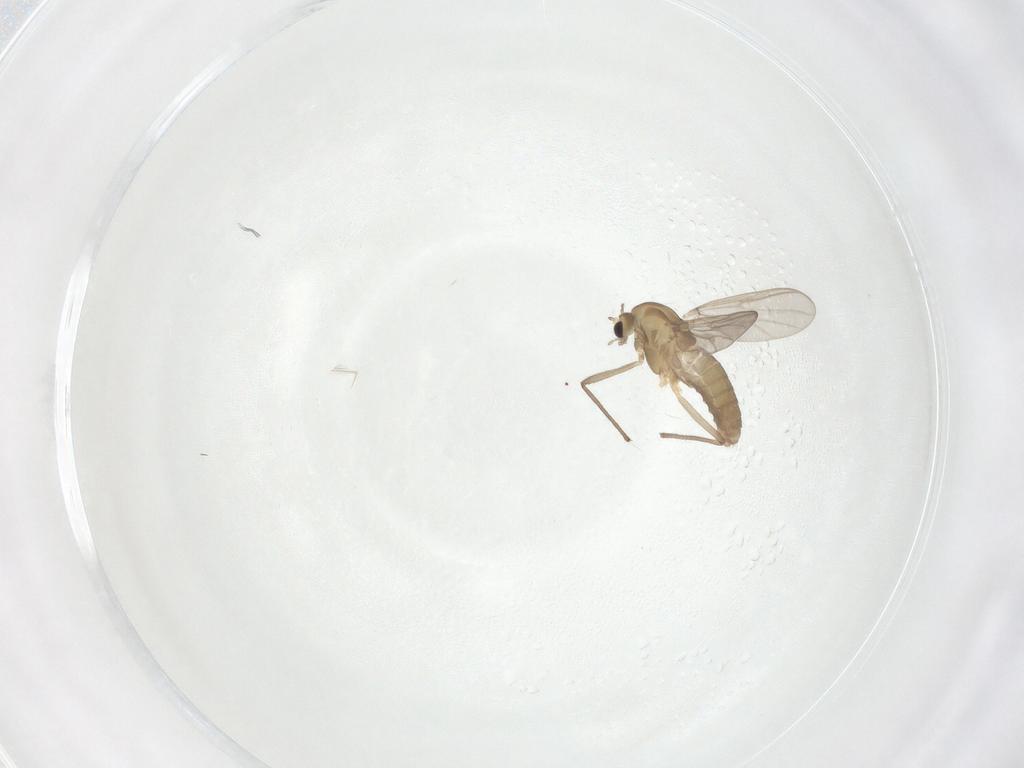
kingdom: Animalia
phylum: Arthropoda
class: Insecta
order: Diptera
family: Chironomidae
